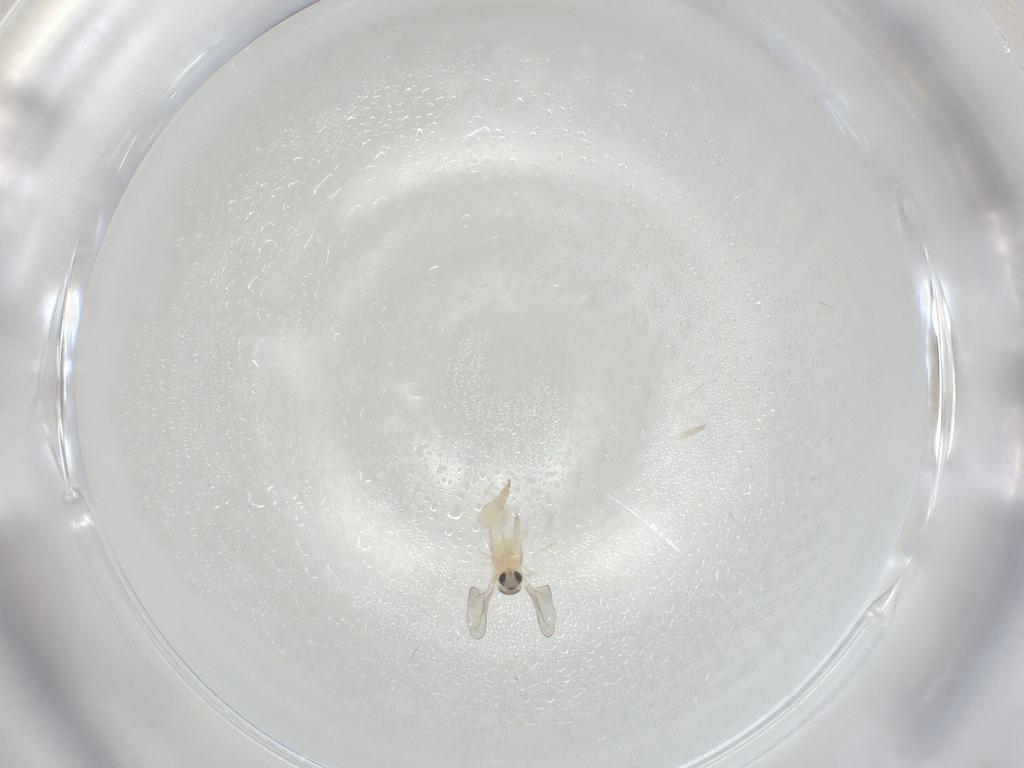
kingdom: Animalia
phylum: Arthropoda
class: Insecta
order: Diptera
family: Cecidomyiidae
